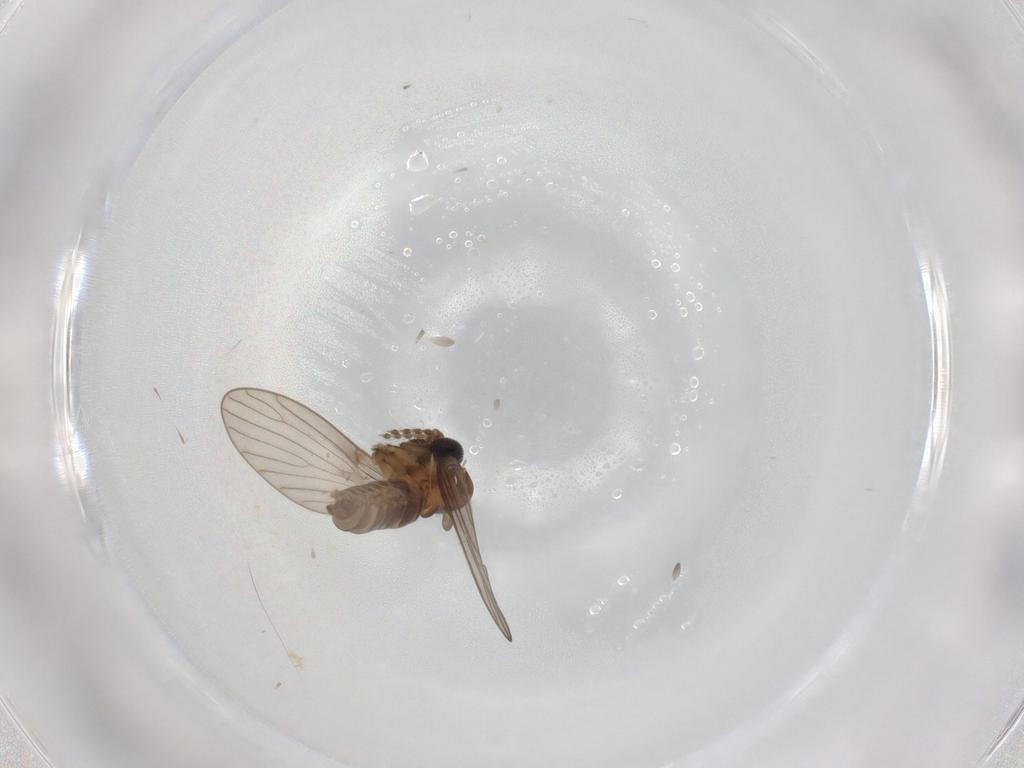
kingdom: Animalia
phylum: Arthropoda
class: Insecta
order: Diptera
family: Psychodidae
